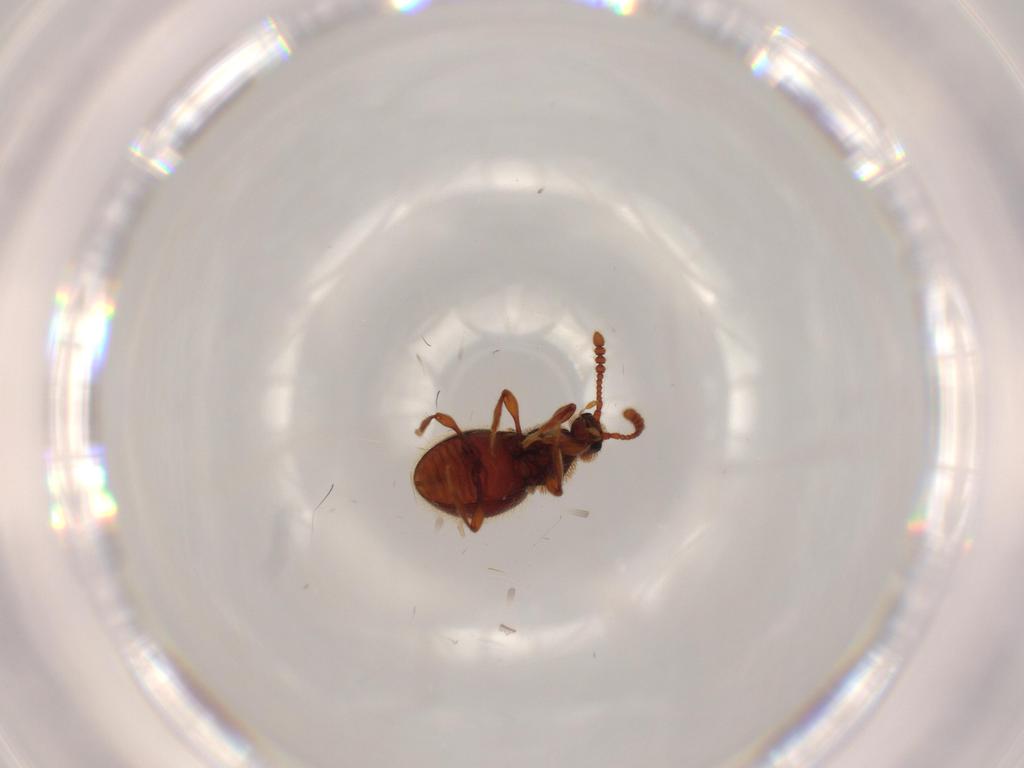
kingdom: Animalia
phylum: Arthropoda
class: Insecta
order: Coleoptera
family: Staphylinidae
